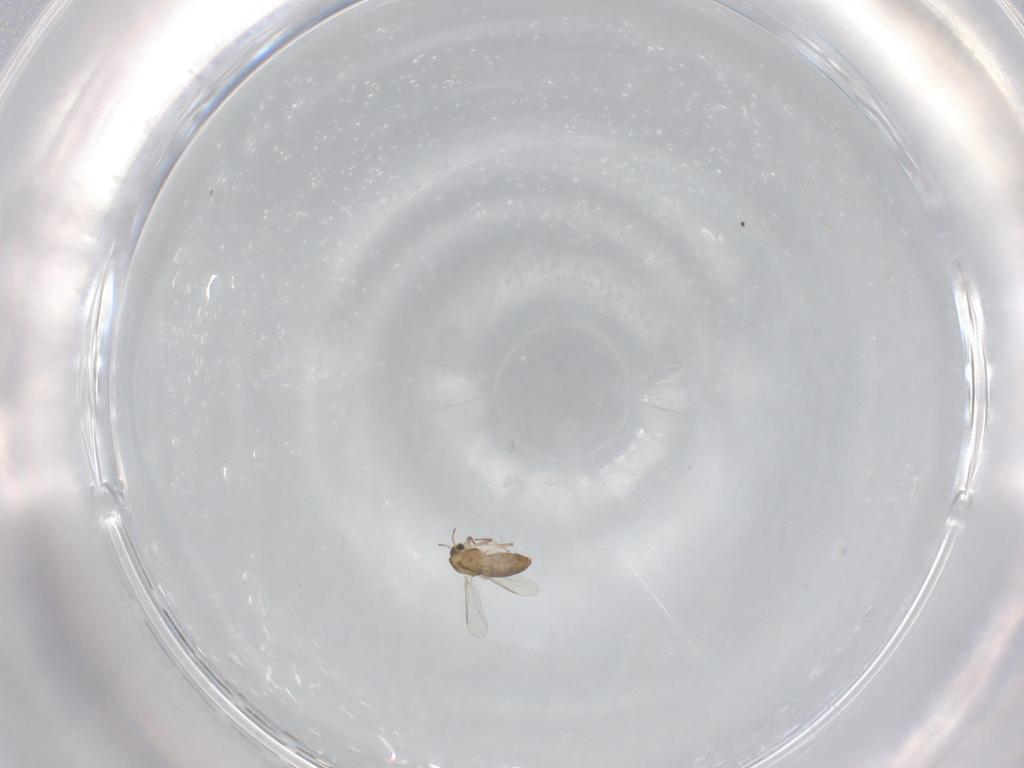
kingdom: Animalia
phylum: Arthropoda
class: Insecta
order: Diptera
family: Chironomidae
